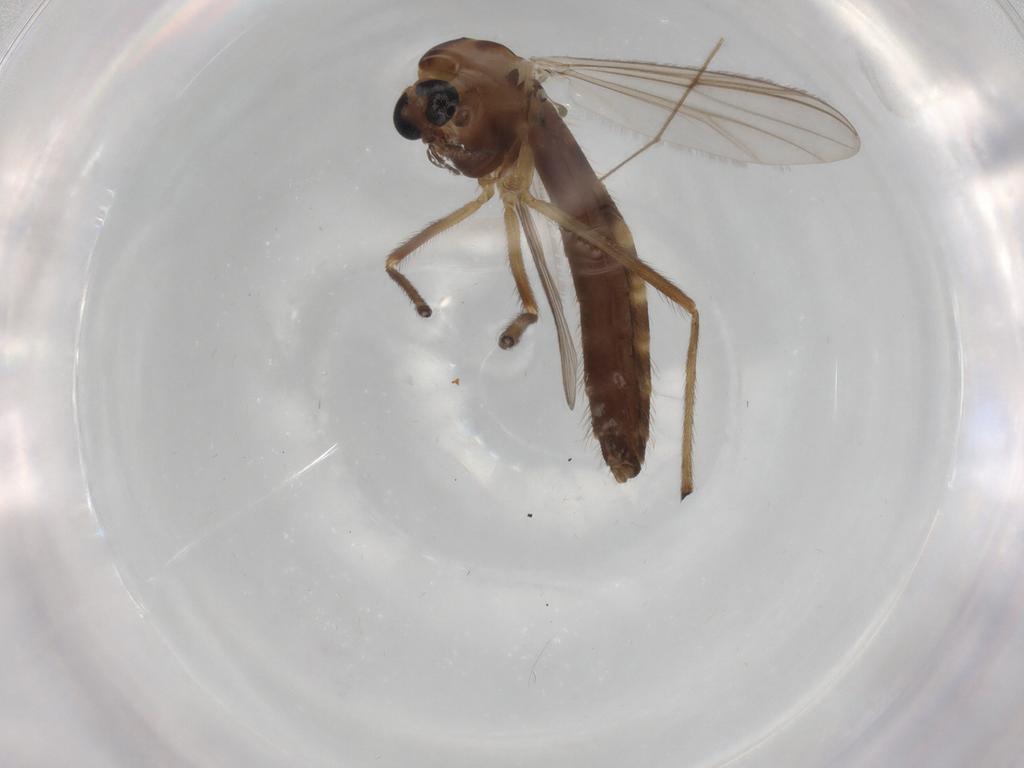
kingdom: Animalia
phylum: Arthropoda
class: Insecta
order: Diptera
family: Chironomidae
